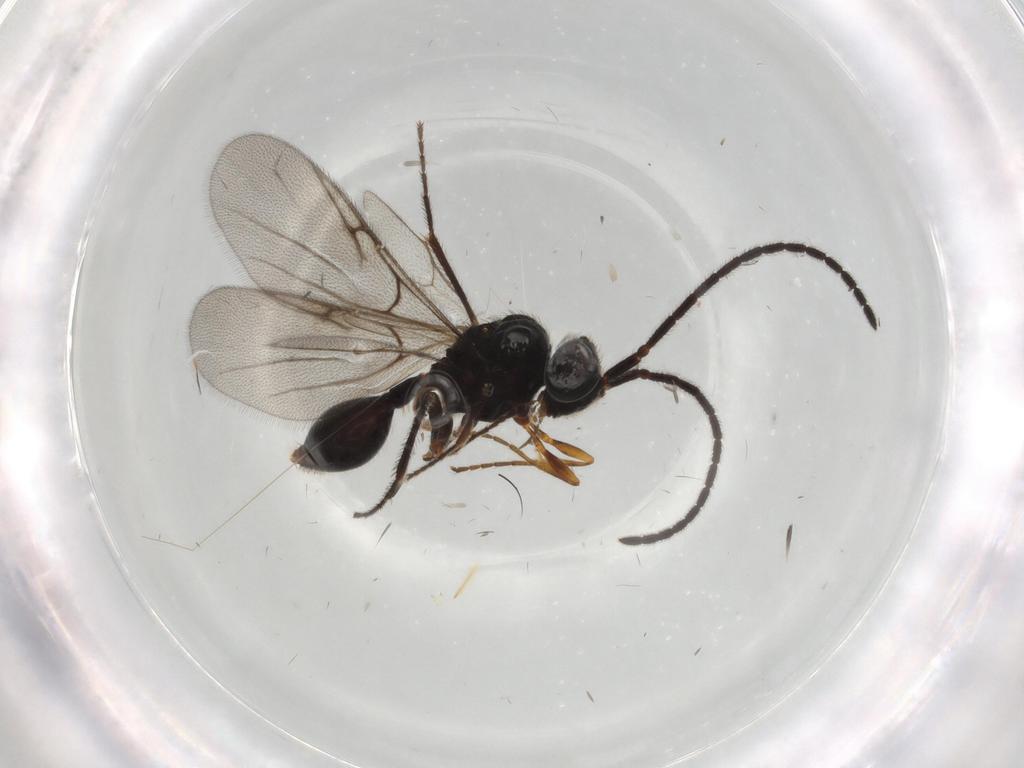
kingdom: Animalia
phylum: Arthropoda
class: Insecta
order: Hymenoptera
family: Diapriidae
